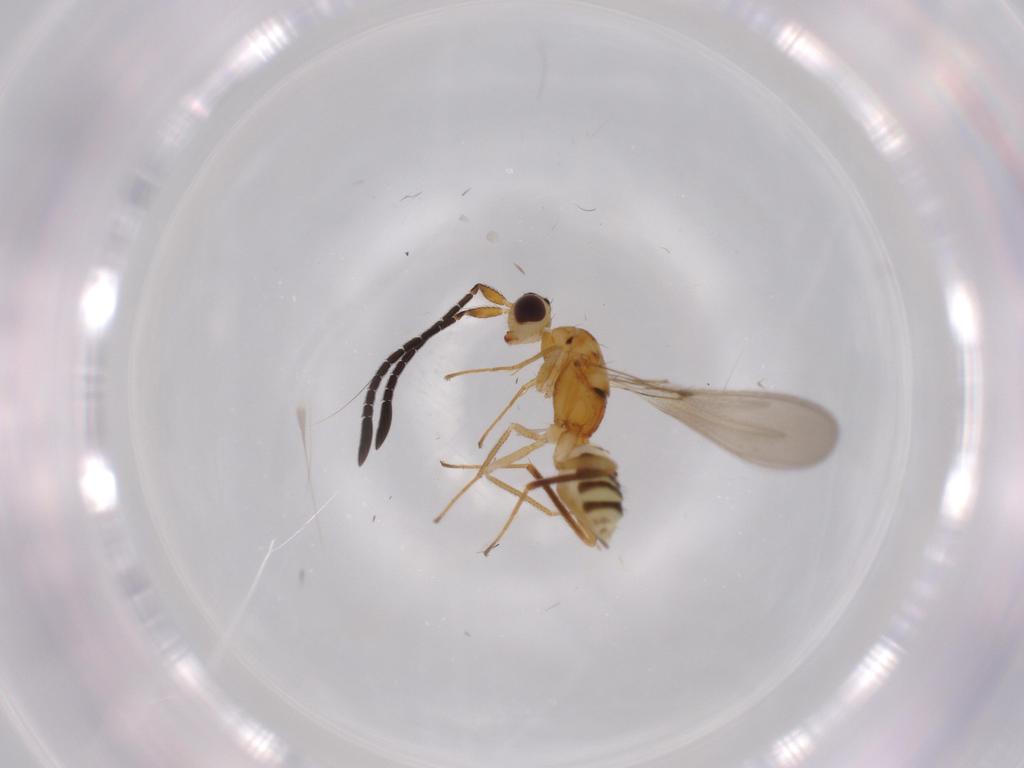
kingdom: Animalia
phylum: Arthropoda
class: Insecta
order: Hymenoptera
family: Mymaridae
